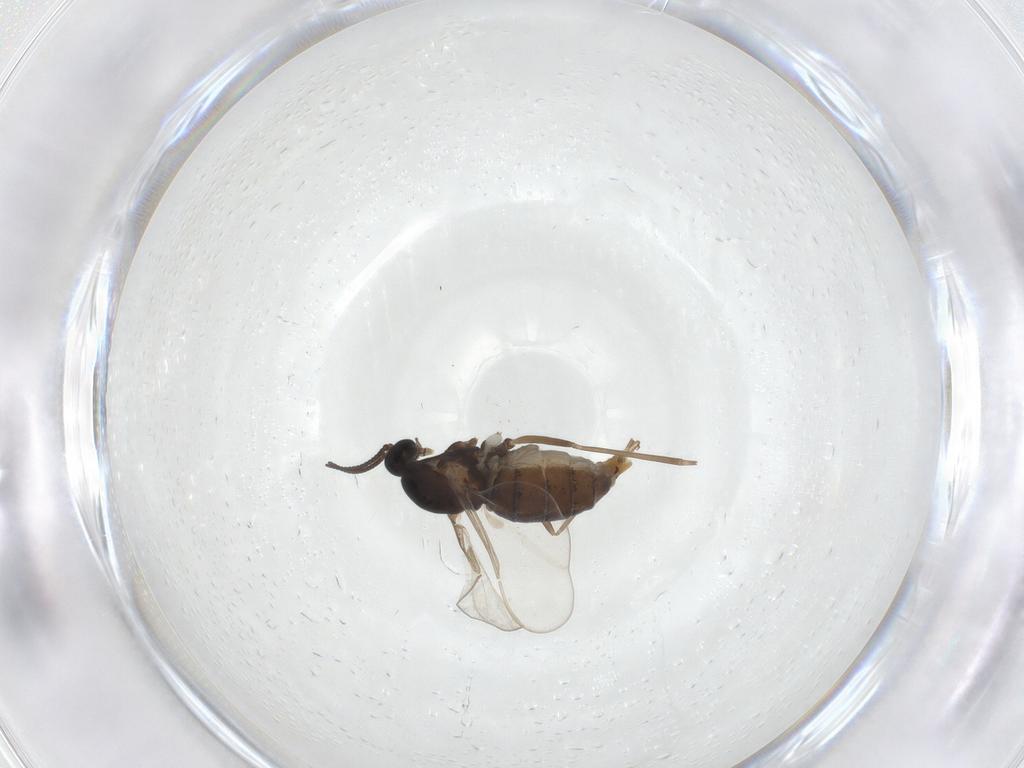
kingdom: Animalia
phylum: Arthropoda
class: Insecta
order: Diptera
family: Cecidomyiidae
